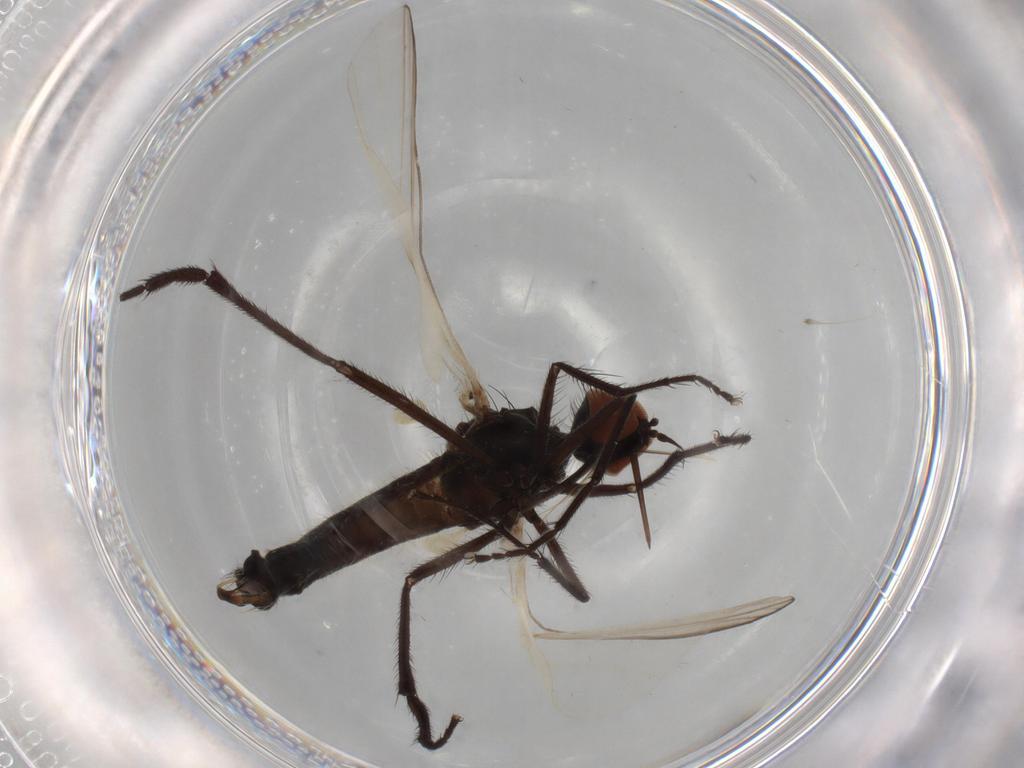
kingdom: Animalia
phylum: Arthropoda
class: Insecta
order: Diptera
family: Empididae
